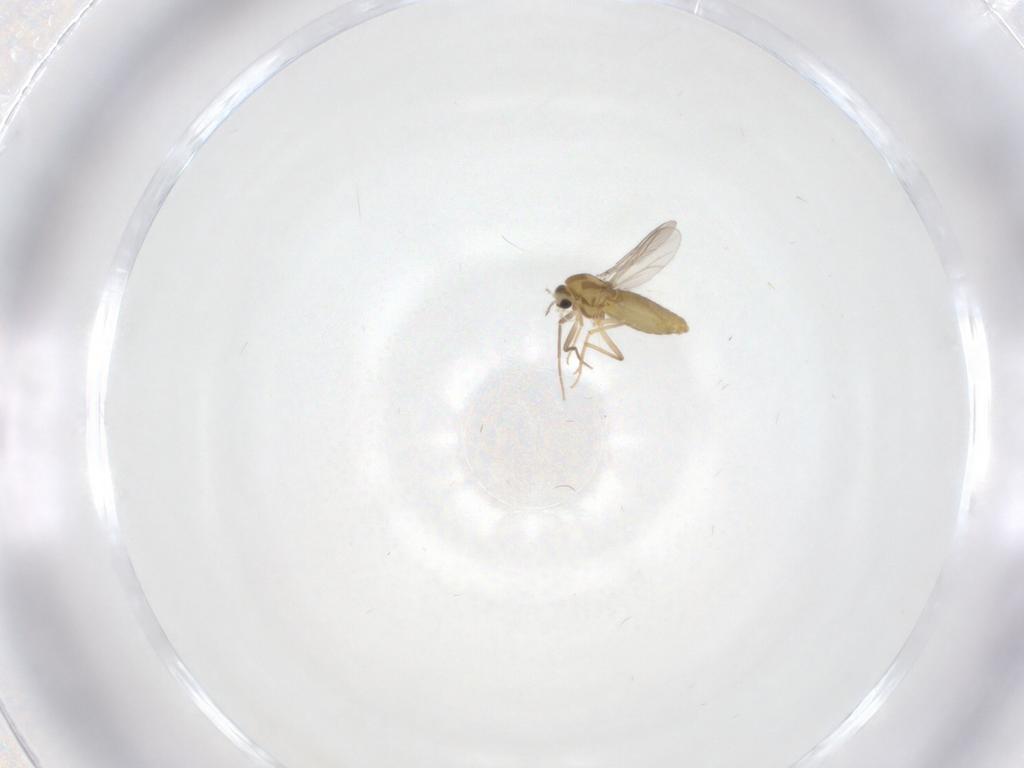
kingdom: Animalia
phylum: Arthropoda
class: Insecta
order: Diptera
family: Chironomidae
